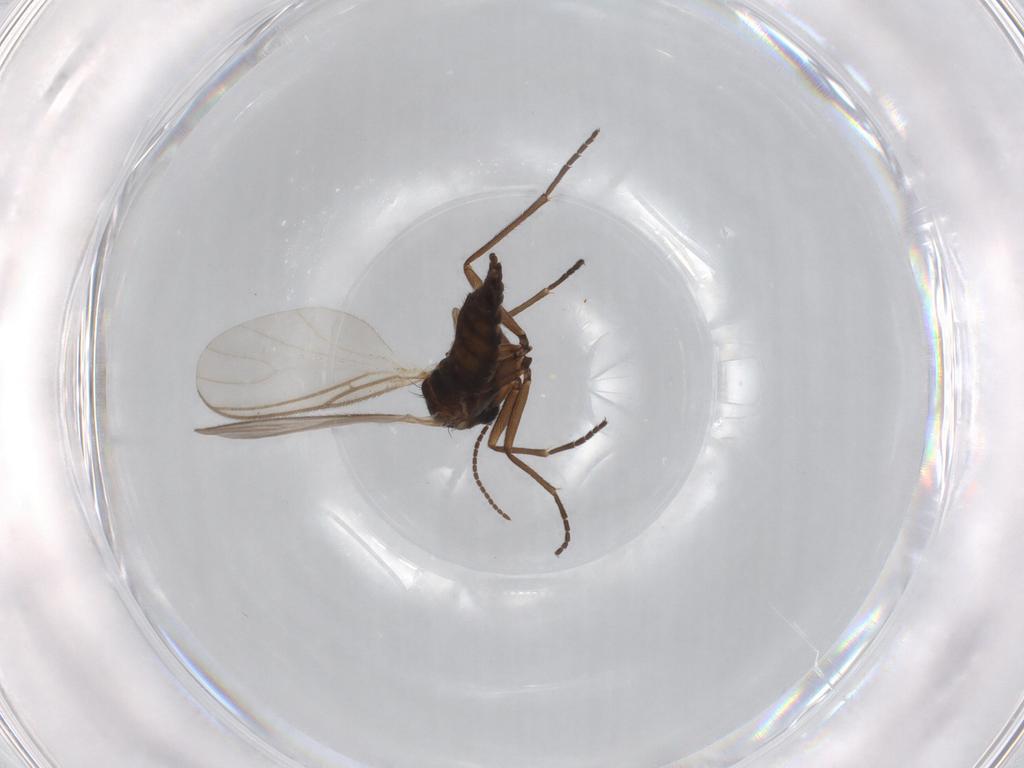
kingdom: Animalia
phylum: Arthropoda
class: Insecta
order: Diptera
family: Sciaridae
